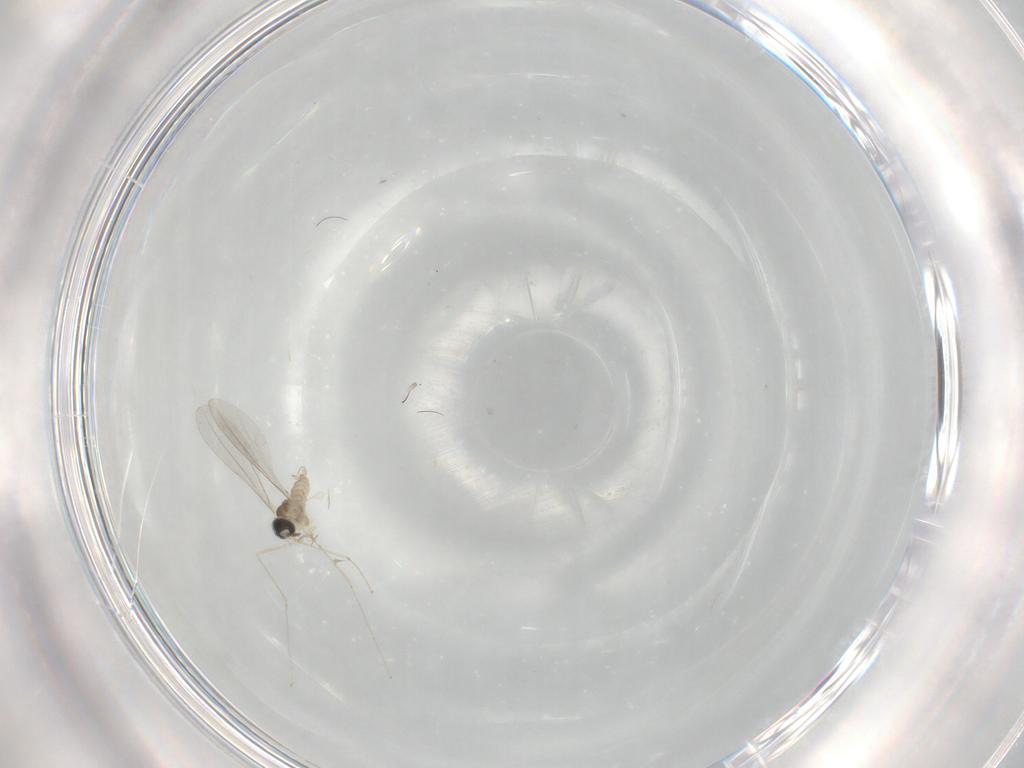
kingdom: Animalia
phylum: Arthropoda
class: Insecta
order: Diptera
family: Cecidomyiidae
